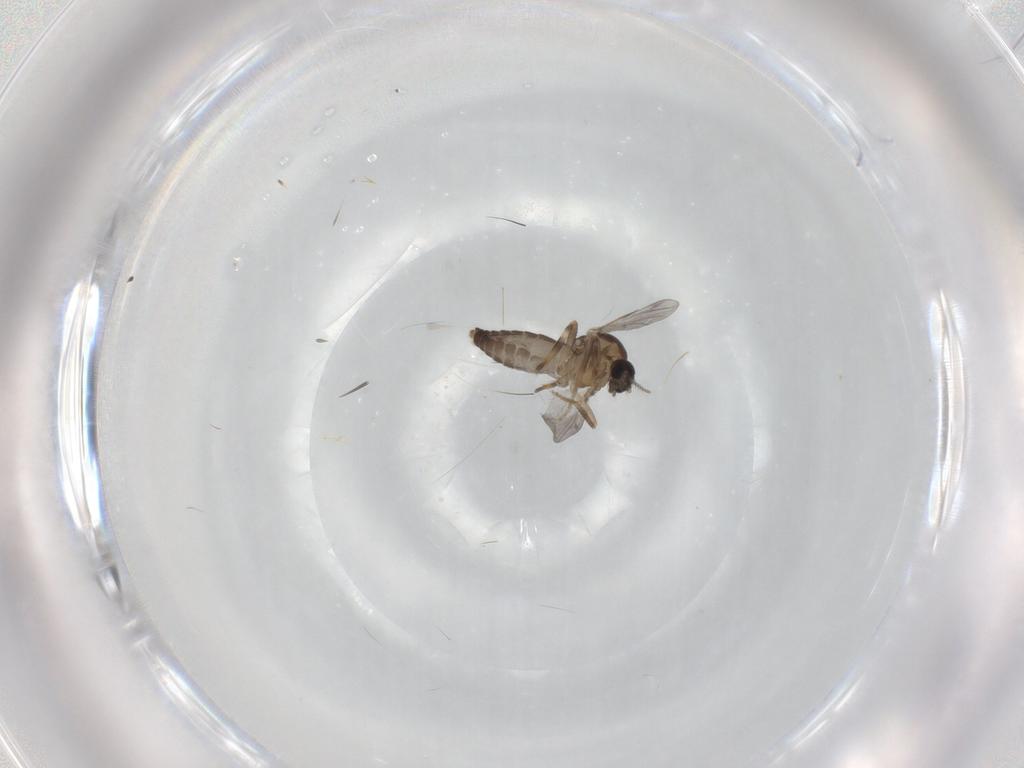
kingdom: Animalia
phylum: Arthropoda
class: Insecta
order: Diptera
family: Ceratopogonidae
